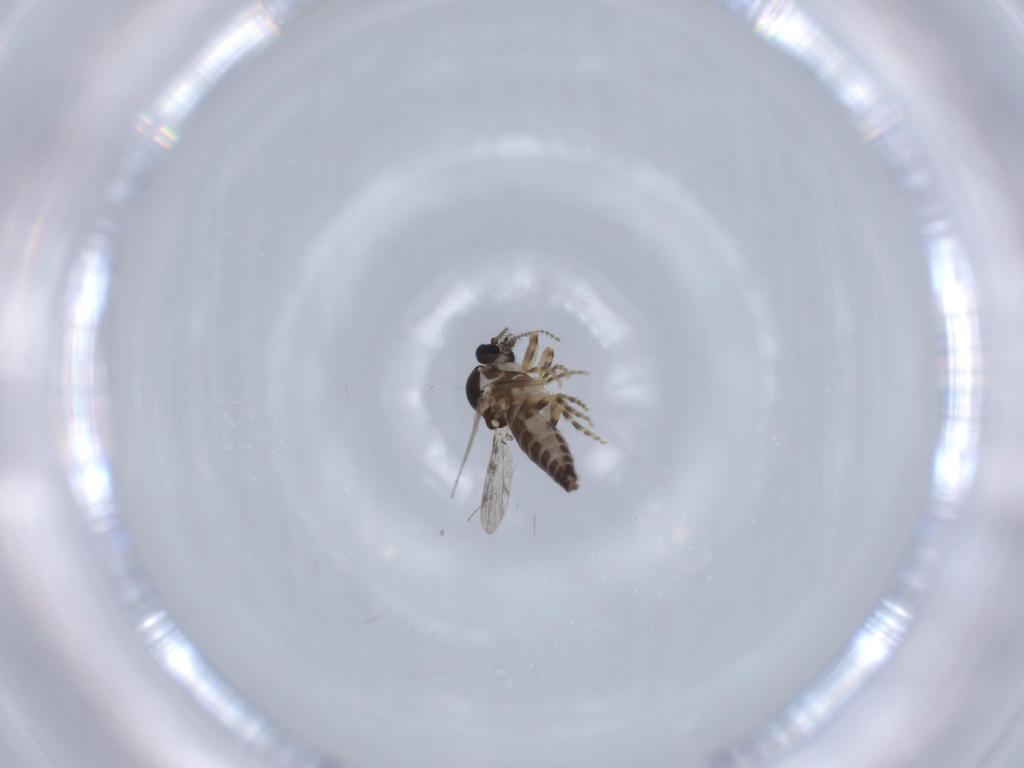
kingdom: Animalia
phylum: Arthropoda
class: Insecta
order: Diptera
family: Ceratopogonidae
